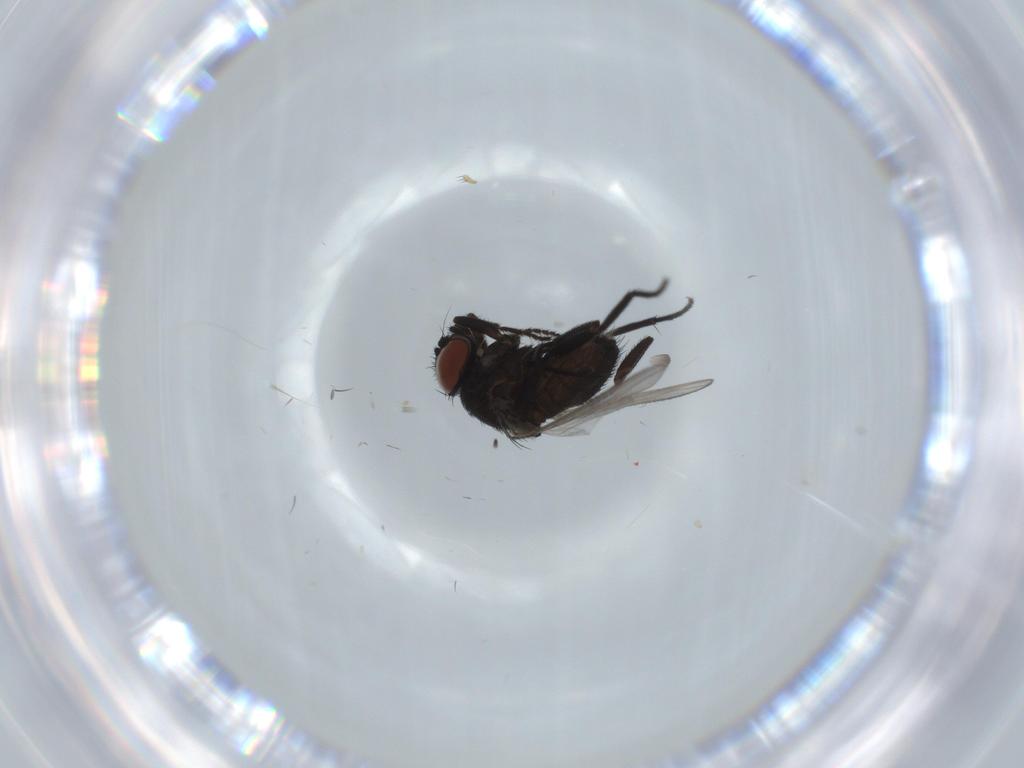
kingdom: Animalia
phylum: Arthropoda
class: Insecta
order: Diptera
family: Milichiidae
